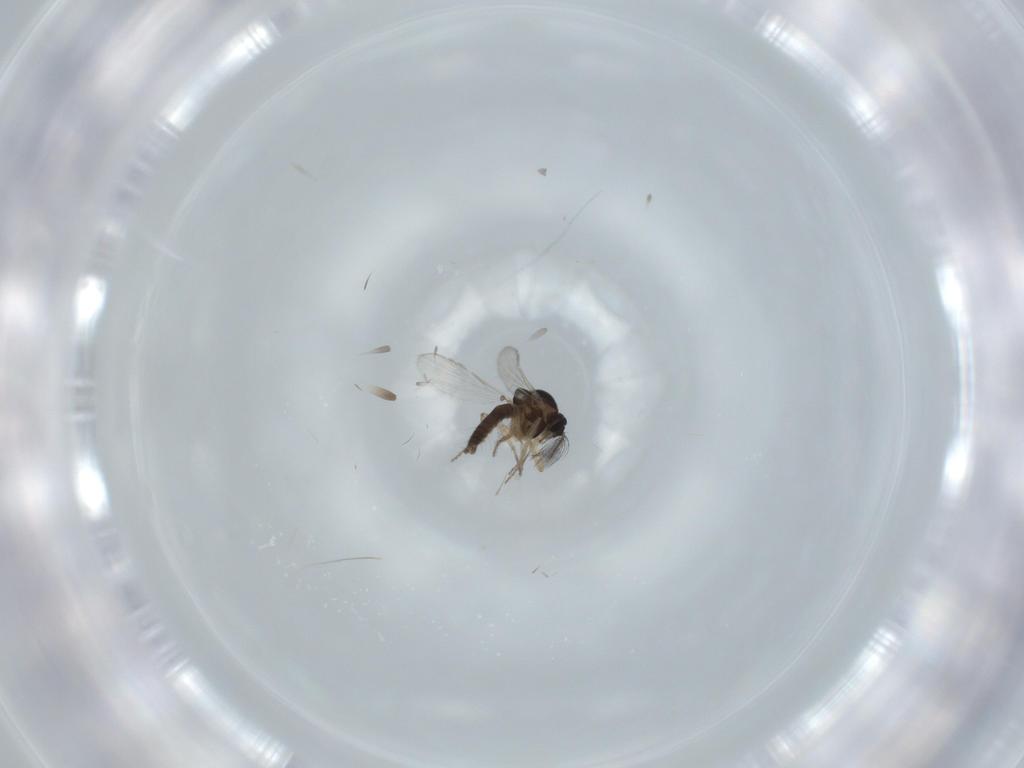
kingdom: Animalia
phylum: Arthropoda
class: Insecta
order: Diptera
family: Ceratopogonidae
